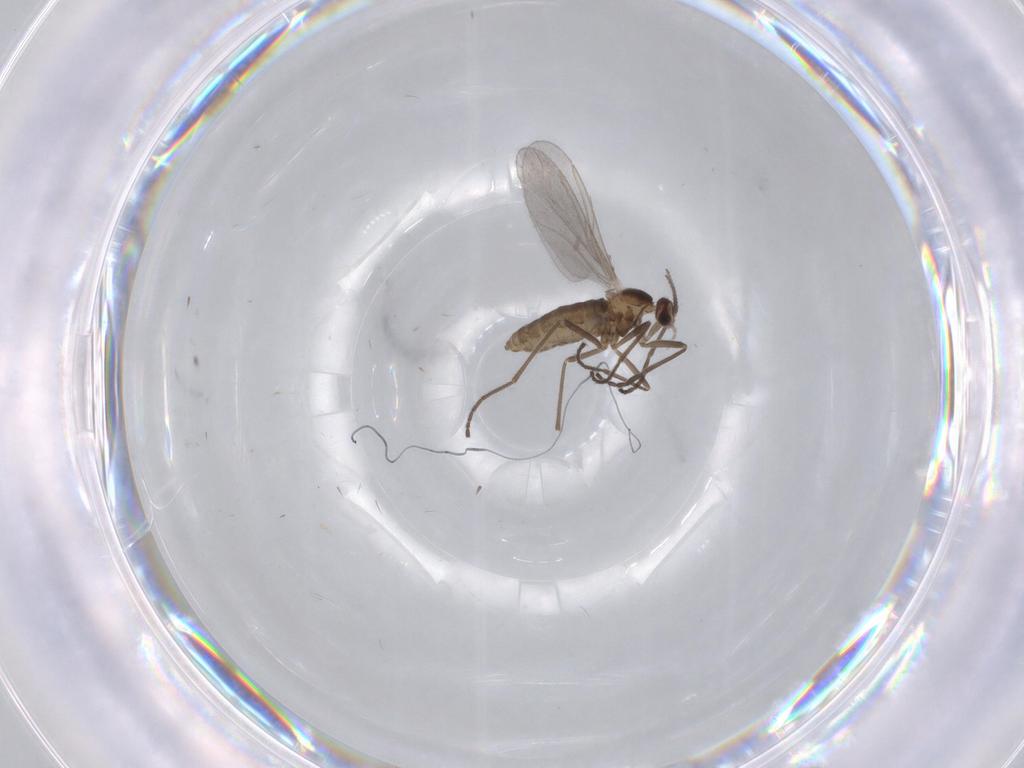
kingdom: Animalia
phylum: Arthropoda
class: Insecta
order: Diptera
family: Cecidomyiidae
